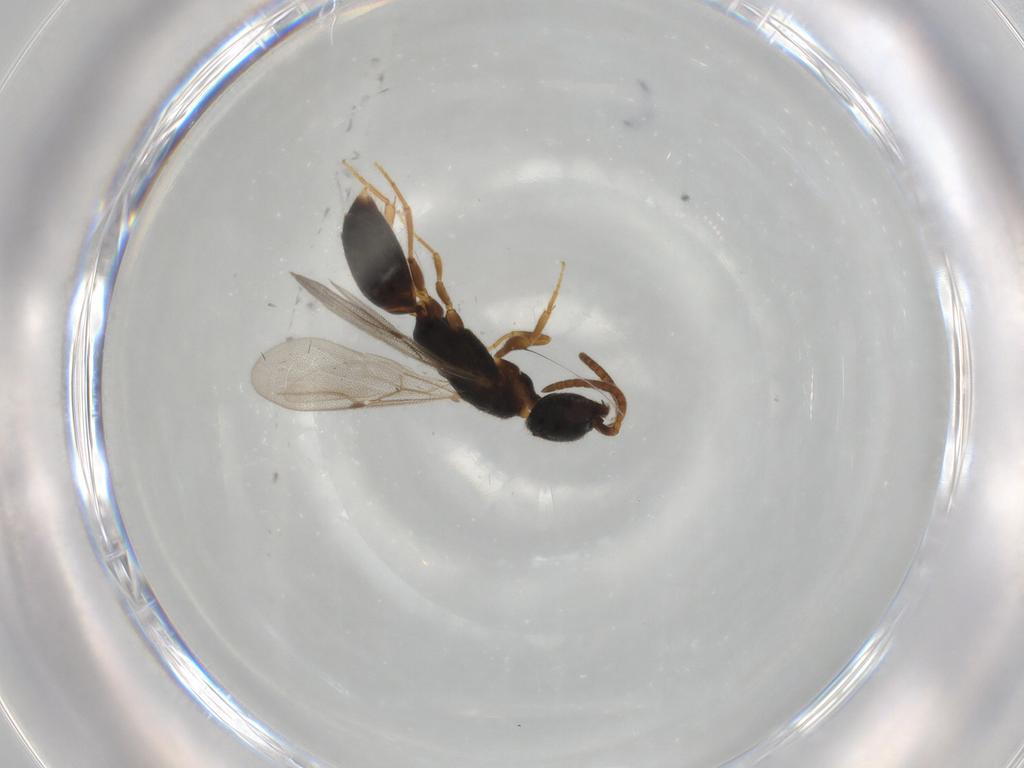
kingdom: Animalia
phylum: Arthropoda
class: Insecta
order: Hymenoptera
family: Bethylidae
